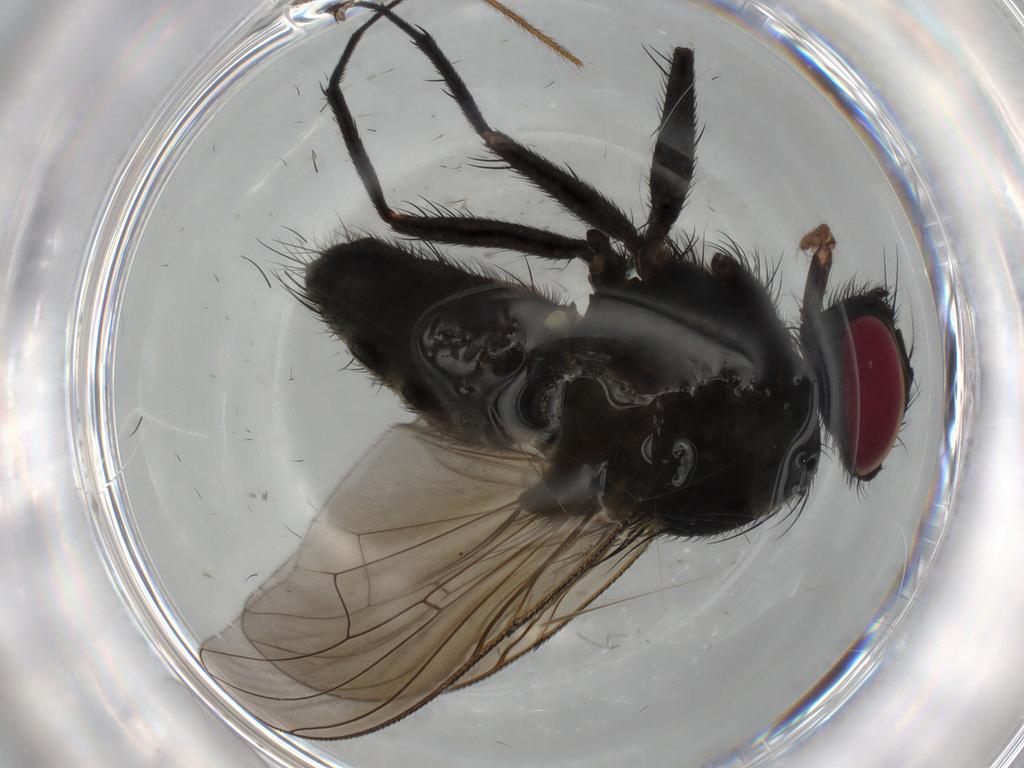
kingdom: Animalia
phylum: Arthropoda
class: Insecta
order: Diptera
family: Muscidae
